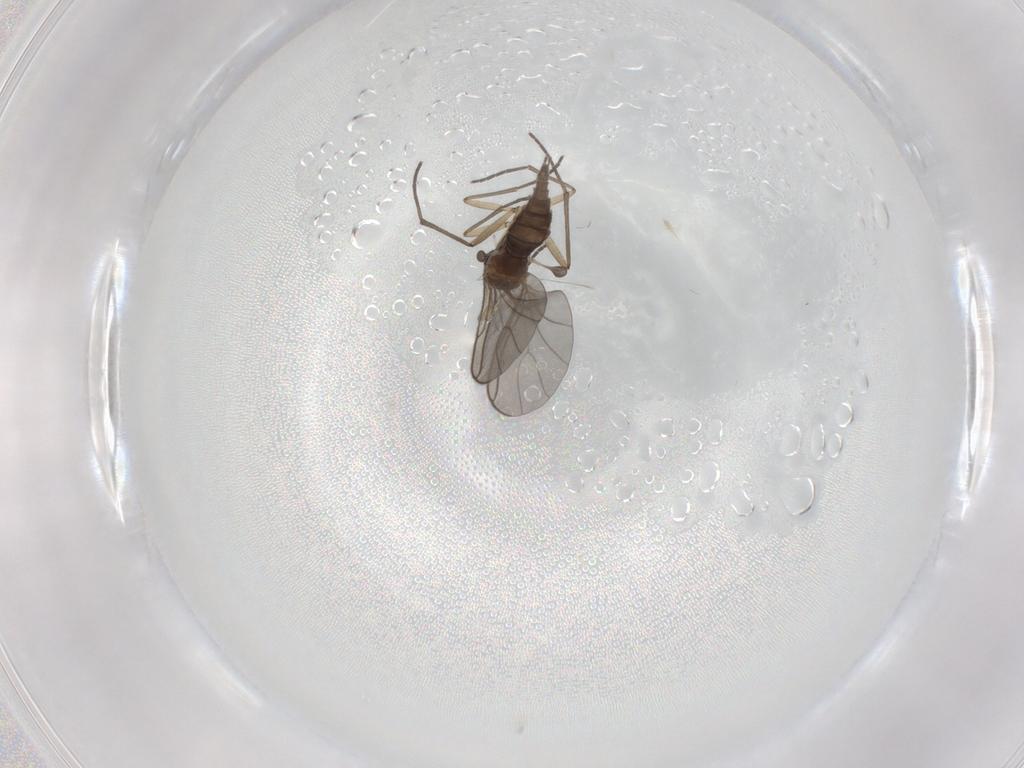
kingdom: Animalia
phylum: Arthropoda
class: Insecta
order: Diptera
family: Sciaridae
